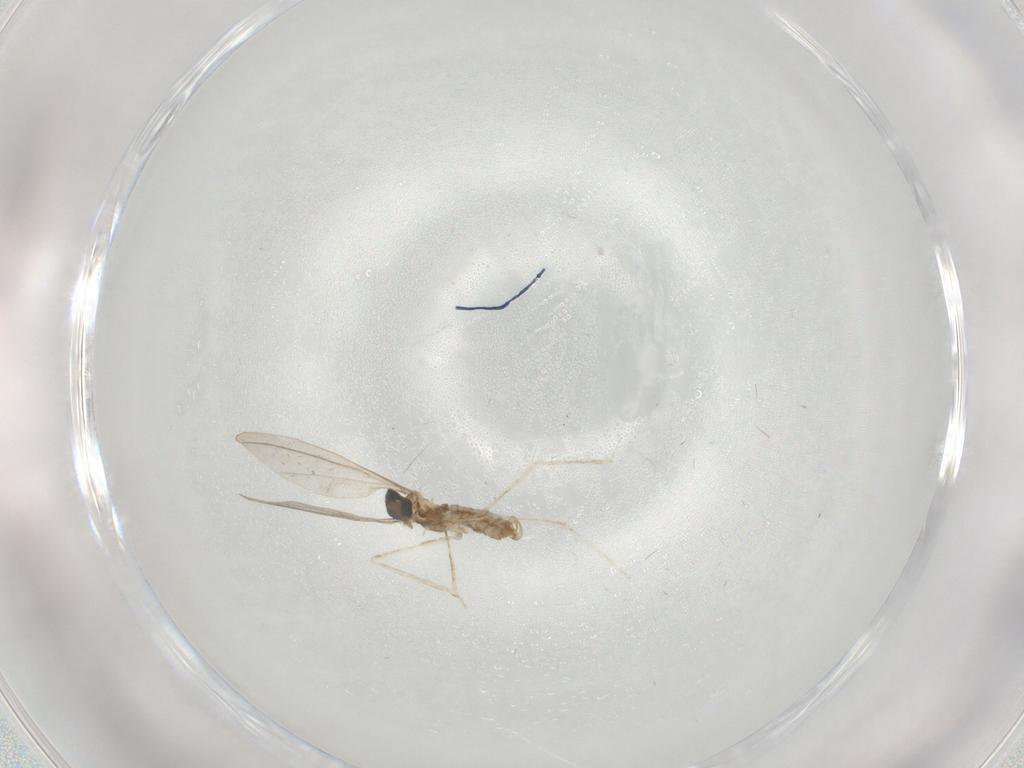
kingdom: Animalia
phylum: Arthropoda
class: Insecta
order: Diptera
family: Cecidomyiidae
